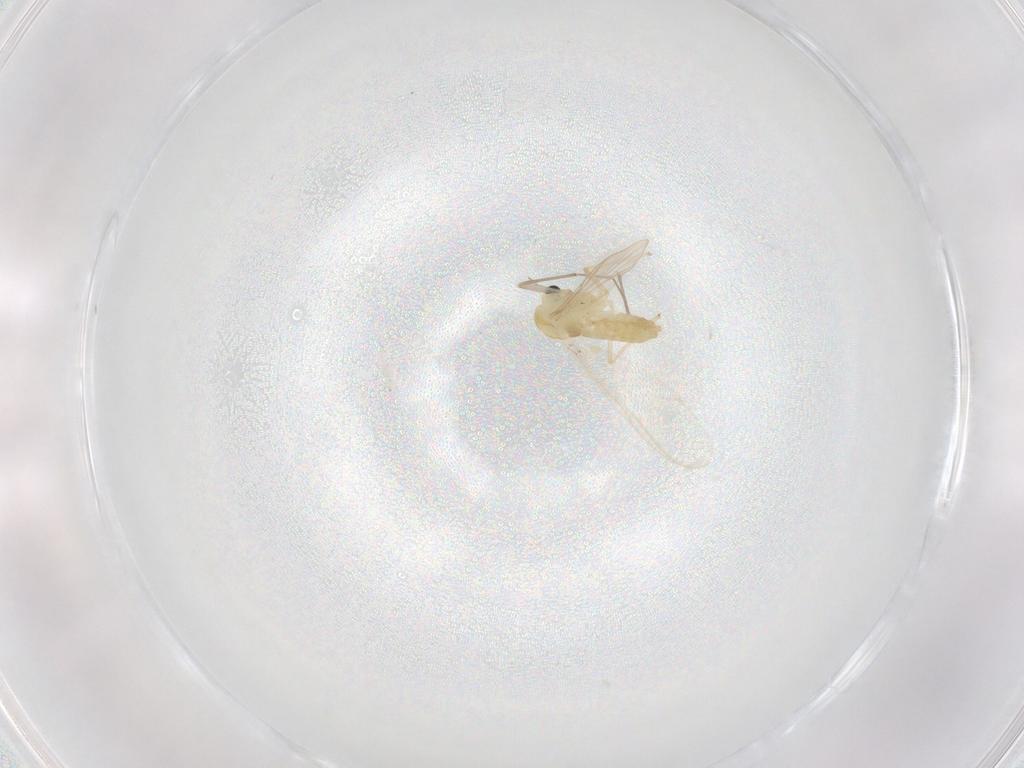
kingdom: Animalia
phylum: Arthropoda
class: Insecta
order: Diptera
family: Chironomidae
